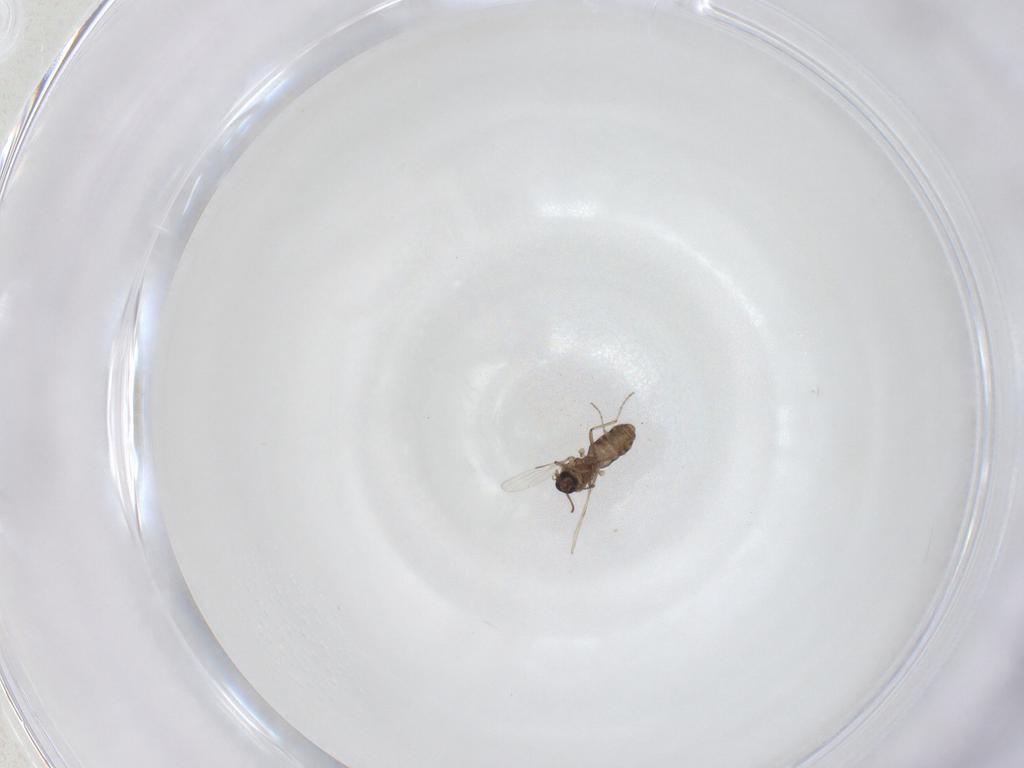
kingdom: Animalia
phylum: Arthropoda
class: Insecta
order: Diptera
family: Ceratopogonidae
